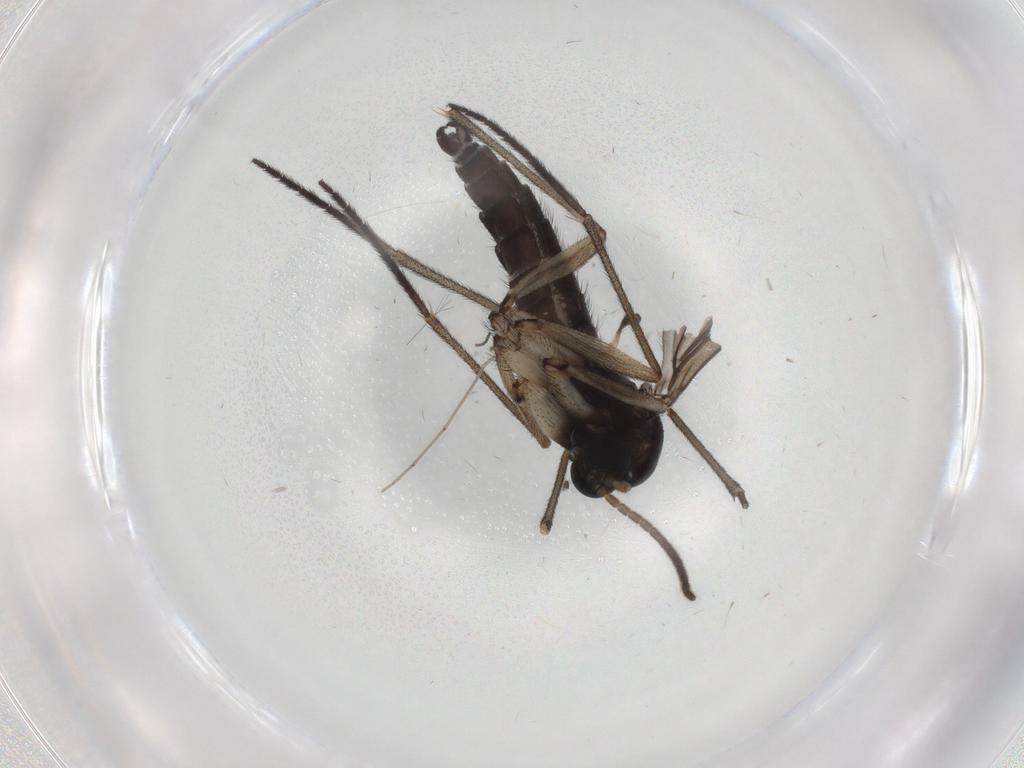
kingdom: Animalia
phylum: Arthropoda
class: Insecta
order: Diptera
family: Sciaridae
